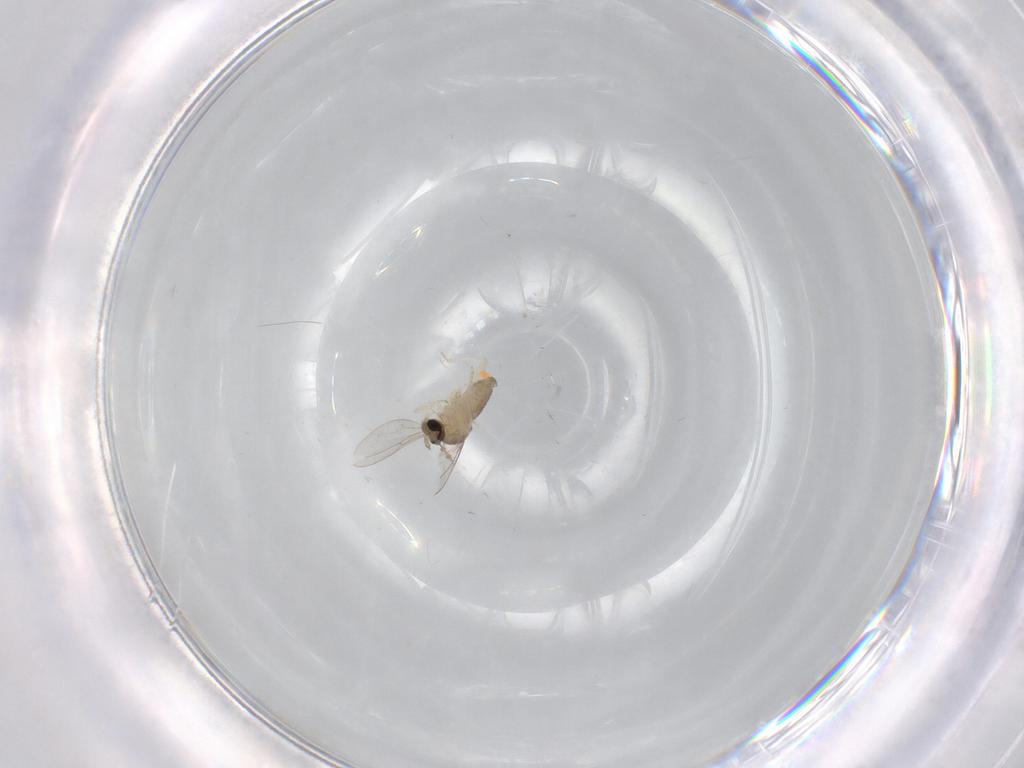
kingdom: Animalia
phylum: Arthropoda
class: Insecta
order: Diptera
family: Cecidomyiidae
